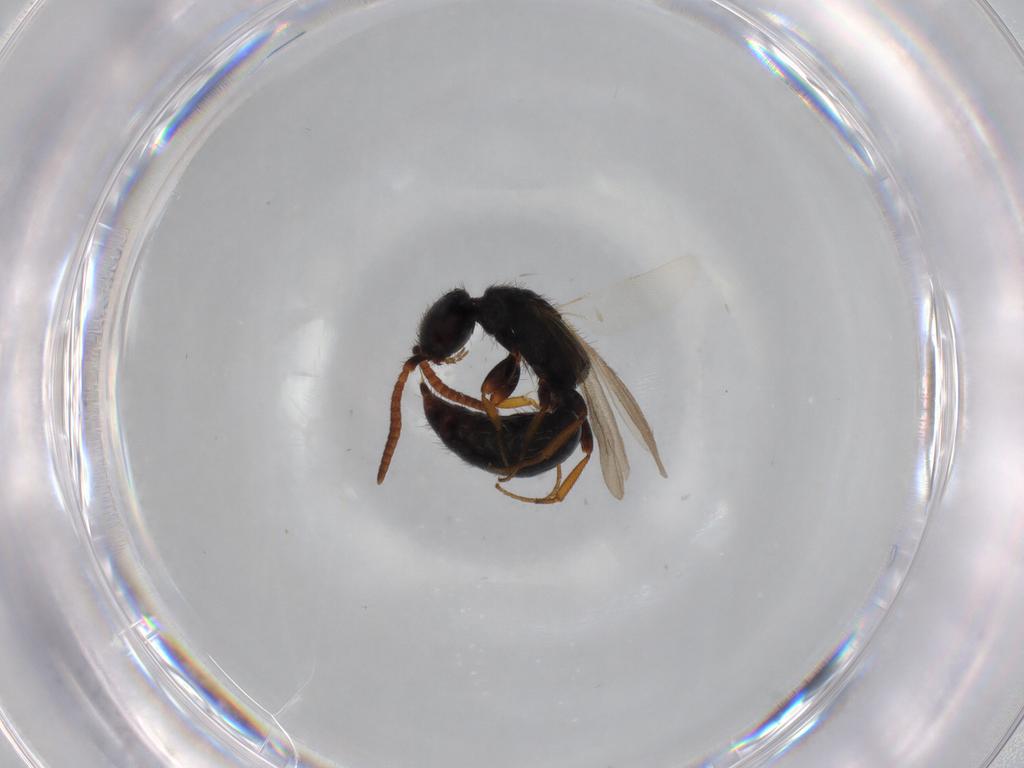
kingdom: Animalia
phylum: Arthropoda
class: Insecta
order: Hymenoptera
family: Bethylidae
